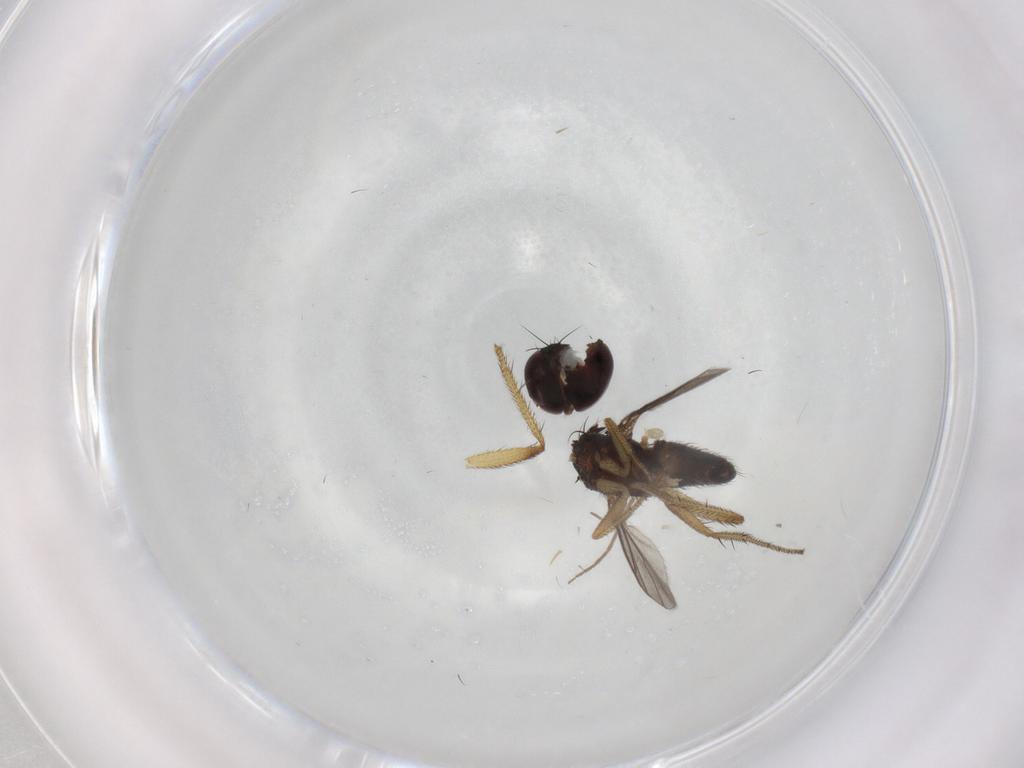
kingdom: Animalia
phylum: Arthropoda
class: Insecta
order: Diptera
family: Dolichopodidae
